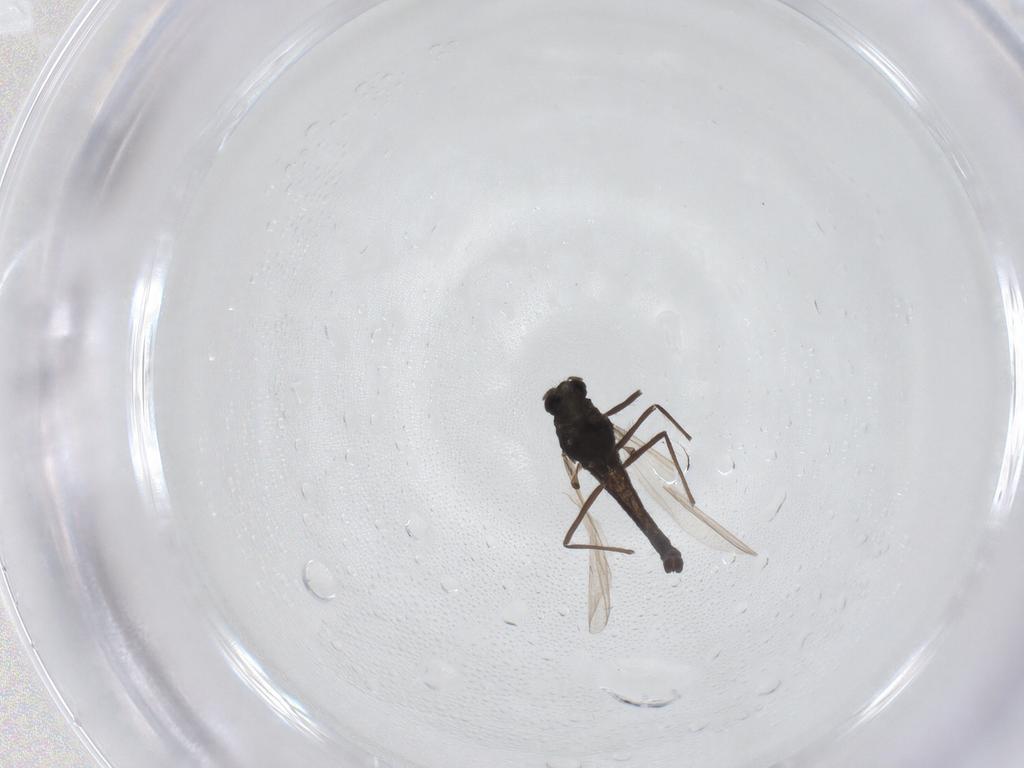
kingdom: Animalia
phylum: Arthropoda
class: Insecta
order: Diptera
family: Chironomidae
